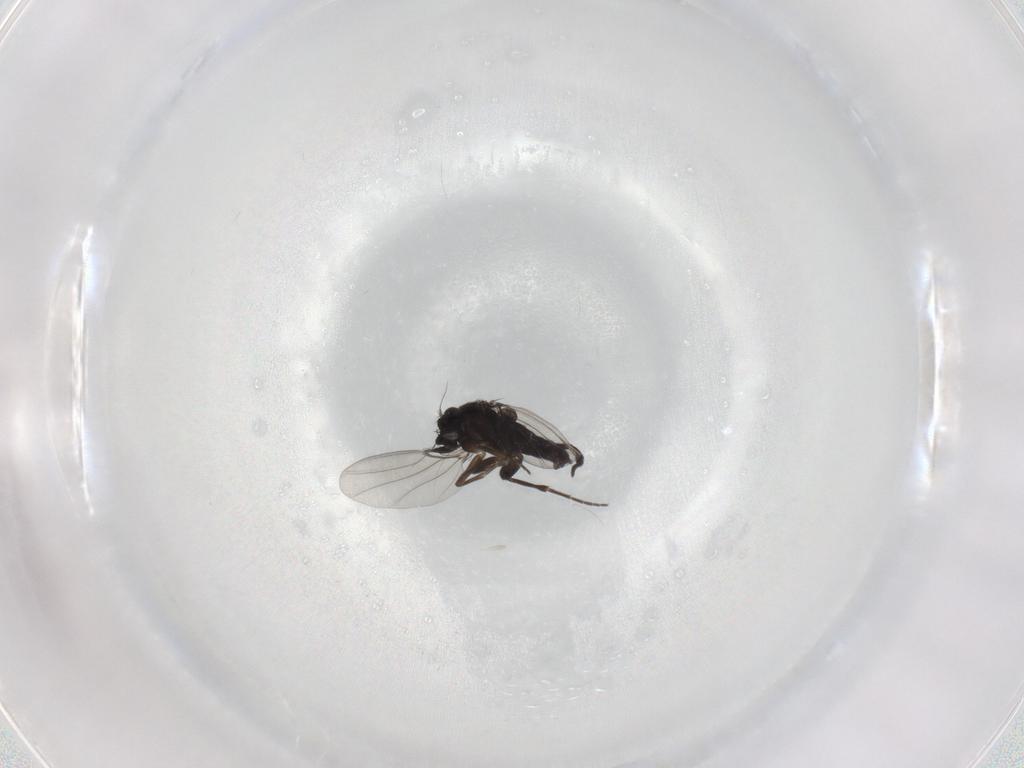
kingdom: Animalia
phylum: Arthropoda
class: Insecta
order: Diptera
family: Phoridae
